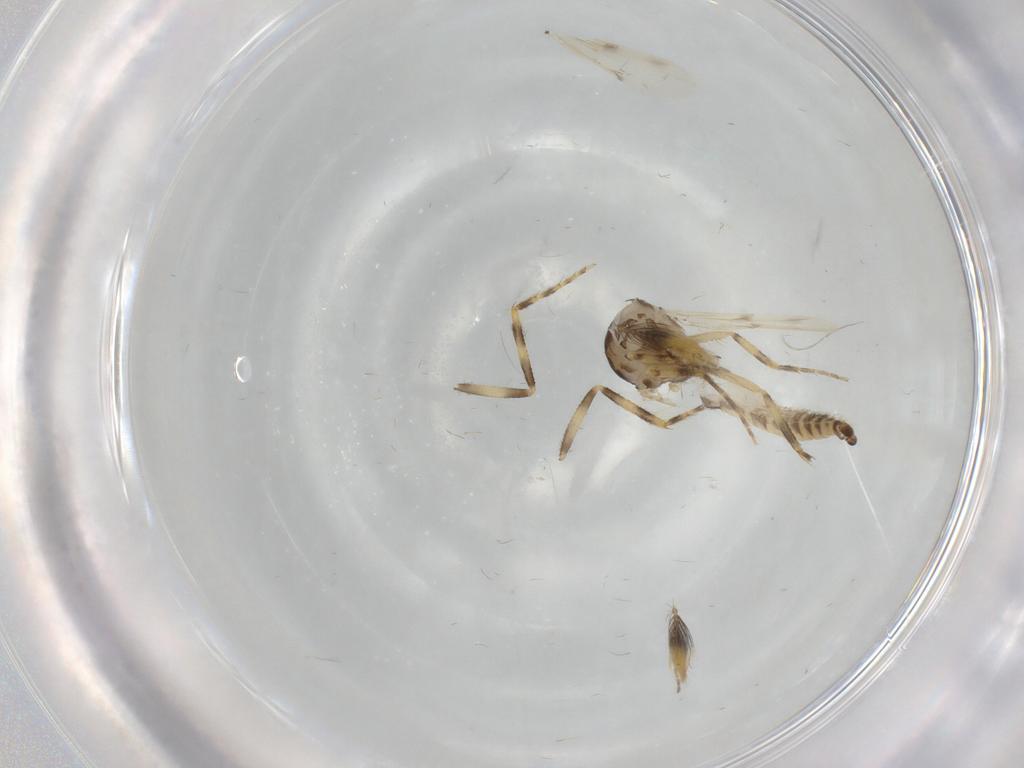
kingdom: Animalia
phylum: Arthropoda
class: Insecta
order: Diptera
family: Ceratopogonidae
